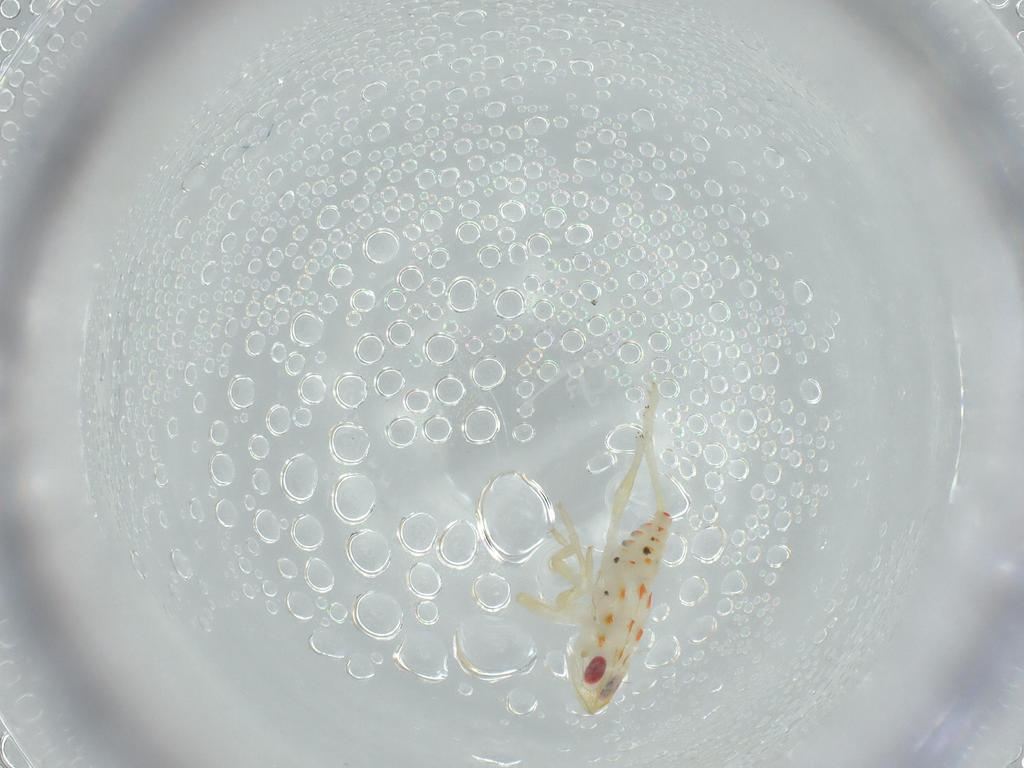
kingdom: Animalia
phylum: Arthropoda
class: Insecta
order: Hemiptera
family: Tropiduchidae
